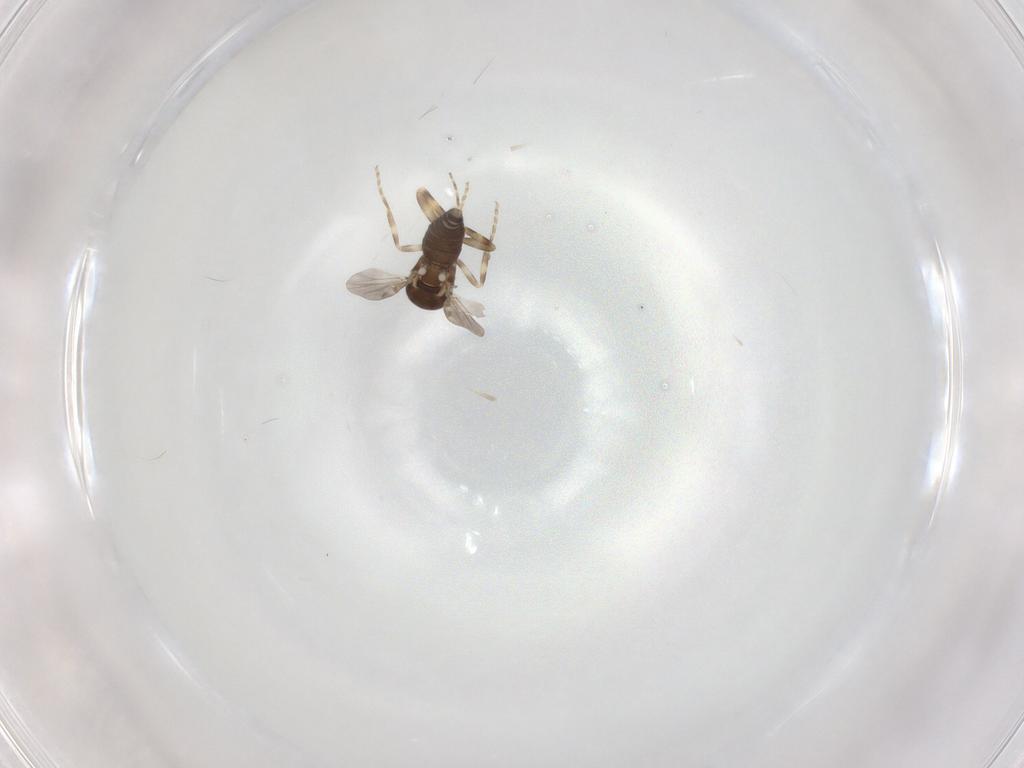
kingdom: Animalia
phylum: Arthropoda
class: Insecta
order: Diptera
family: Ceratopogonidae
